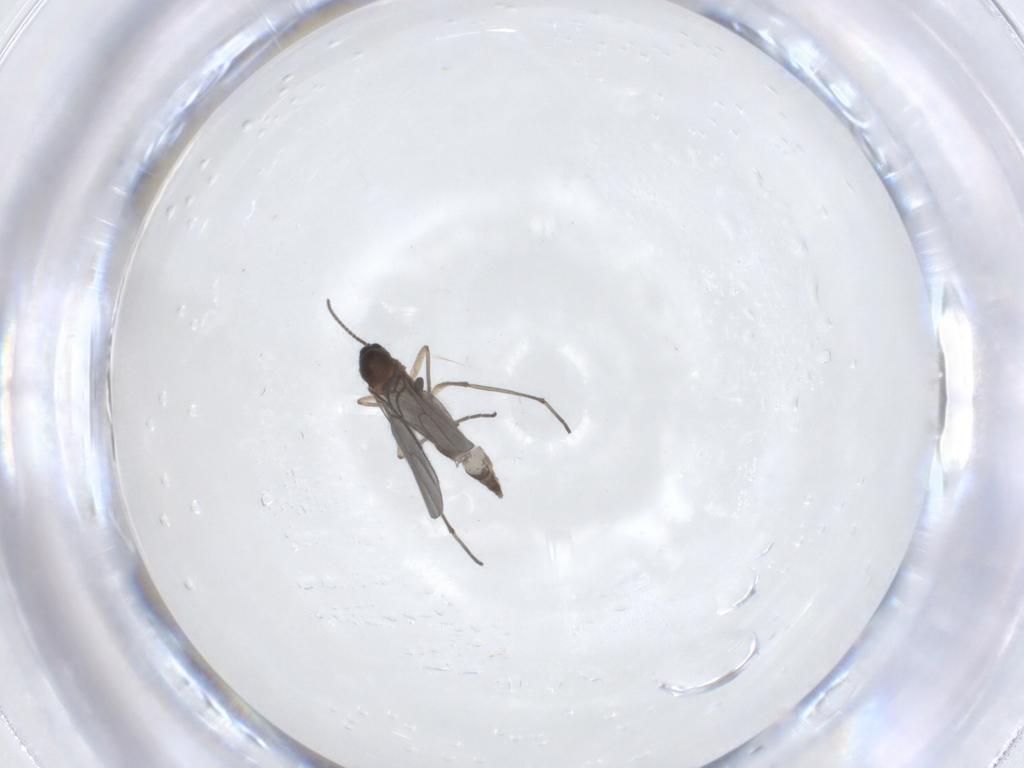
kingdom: Animalia
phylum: Arthropoda
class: Insecta
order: Diptera
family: Sciaridae
